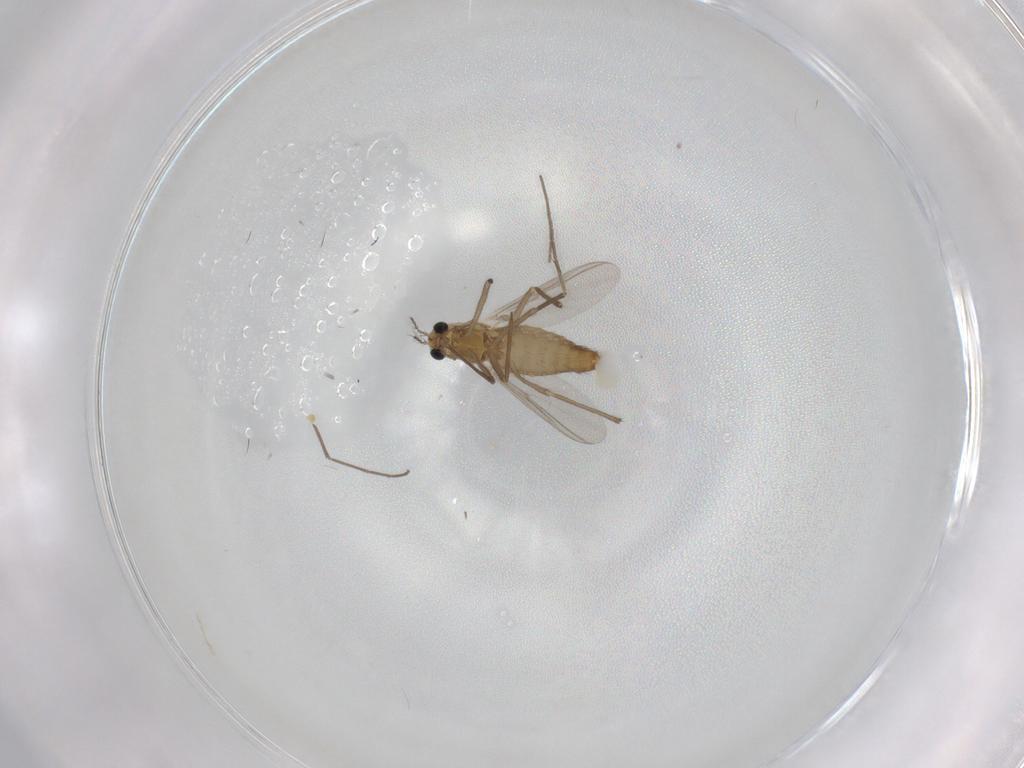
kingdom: Animalia
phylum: Arthropoda
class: Insecta
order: Diptera
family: Chironomidae
